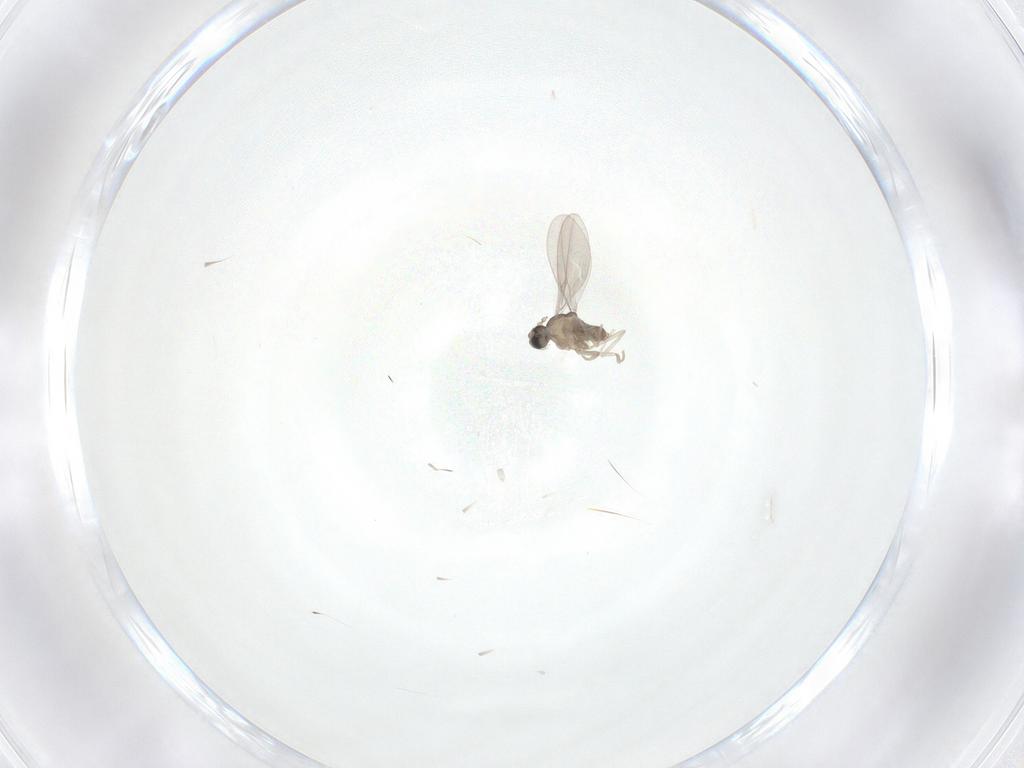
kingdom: Animalia
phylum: Arthropoda
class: Insecta
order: Diptera
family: Cecidomyiidae
